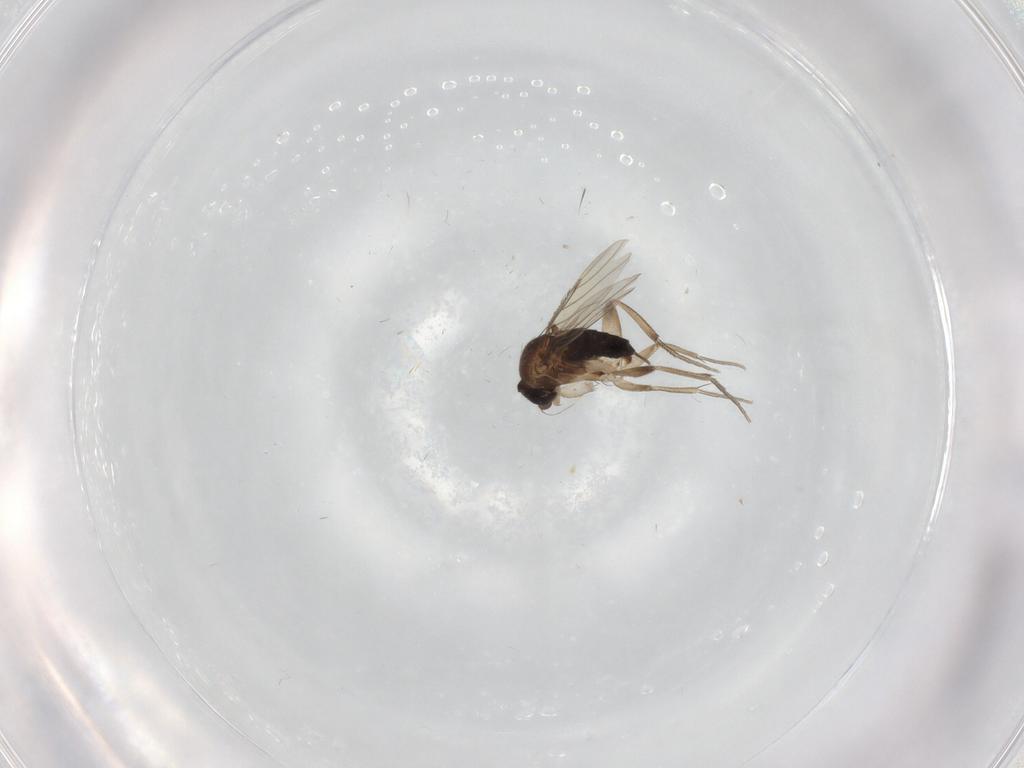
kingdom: Animalia
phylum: Arthropoda
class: Insecta
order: Diptera
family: Phoridae
